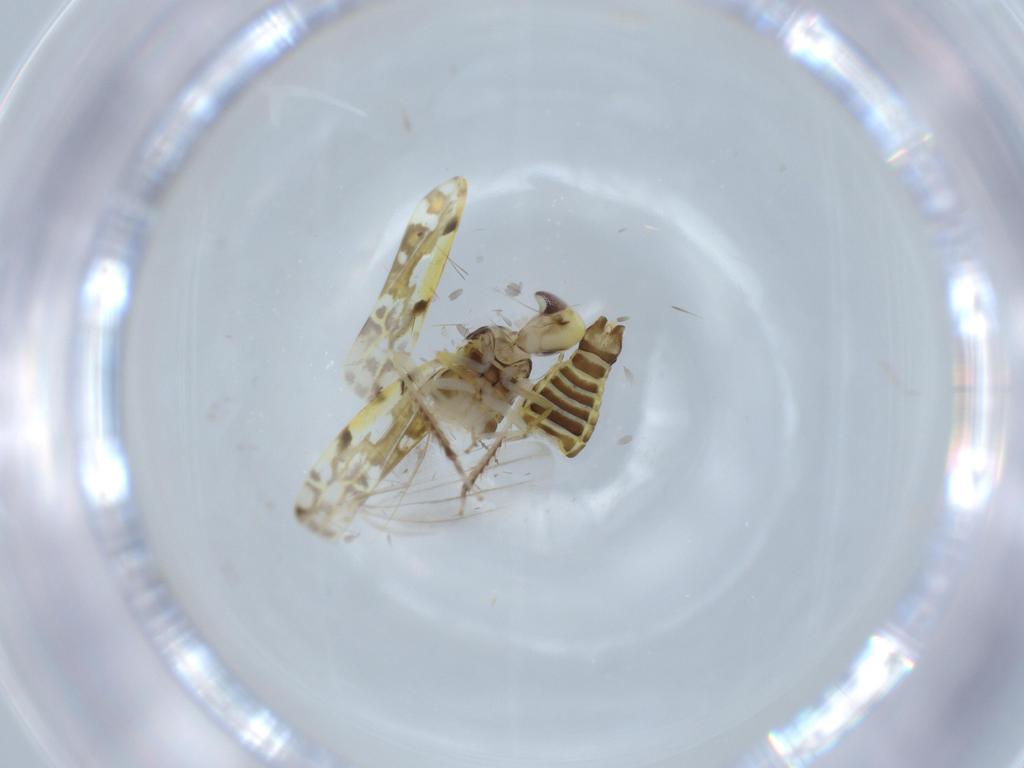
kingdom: Animalia
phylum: Arthropoda
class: Insecta
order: Hemiptera
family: Cicadellidae
